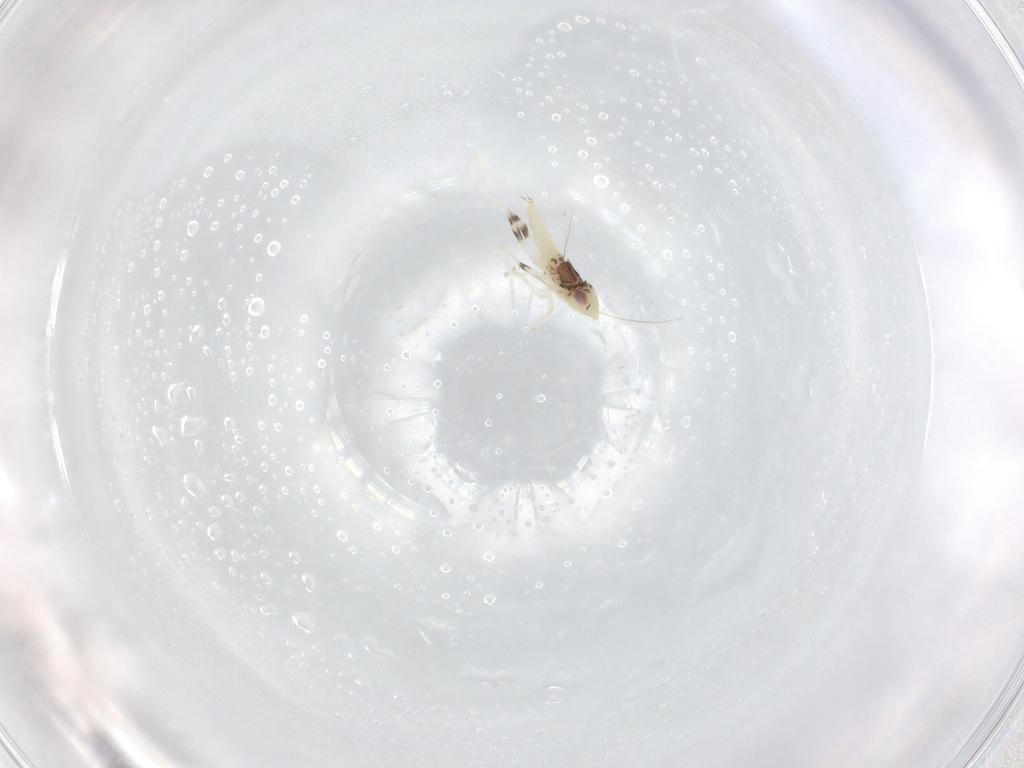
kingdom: Animalia
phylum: Arthropoda
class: Insecta
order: Hemiptera
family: Cicadellidae
